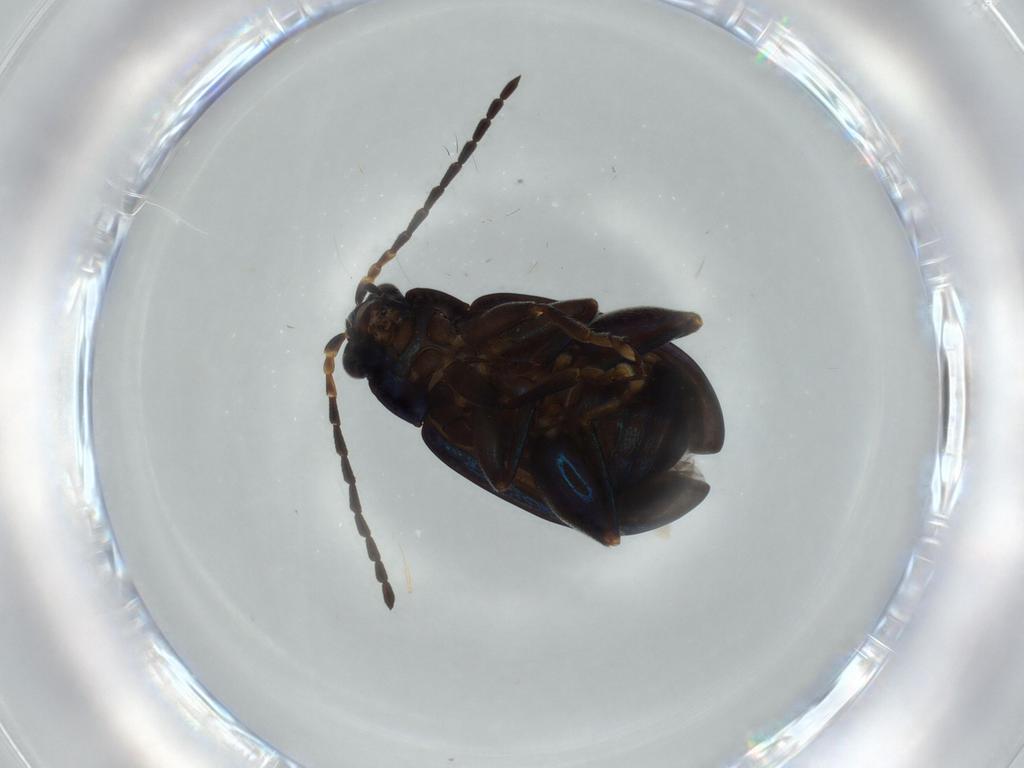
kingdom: Animalia
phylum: Arthropoda
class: Insecta
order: Coleoptera
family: Chrysomelidae
